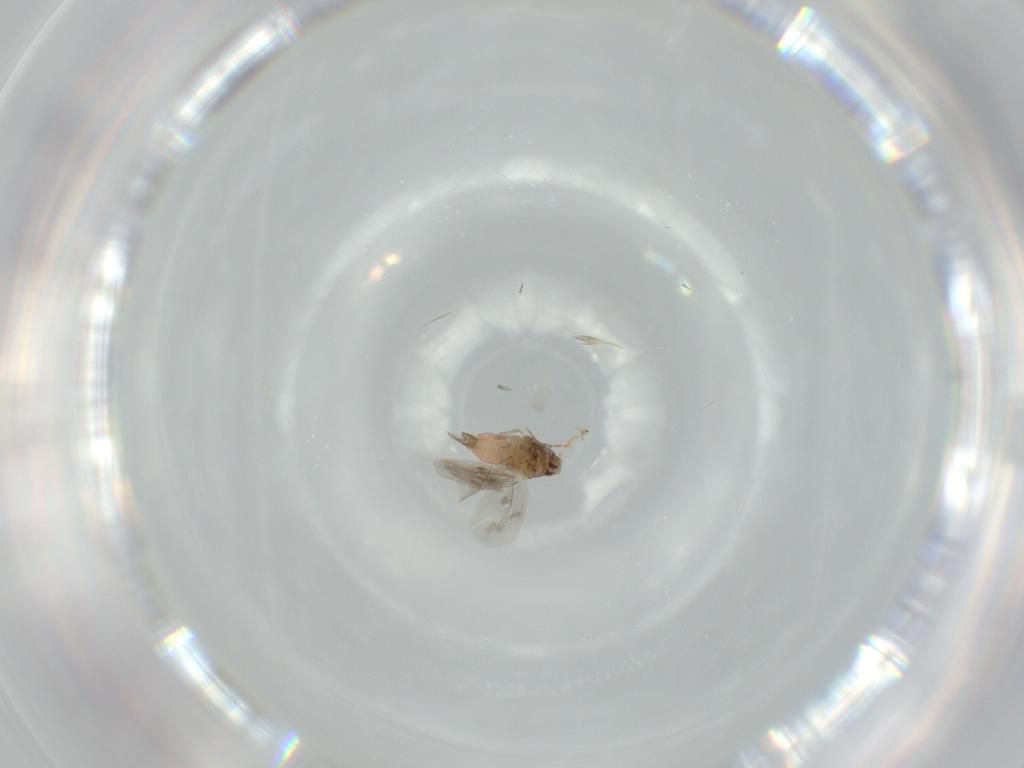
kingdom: Animalia
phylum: Arthropoda
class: Insecta
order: Hemiptera
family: Aleyrodidae
